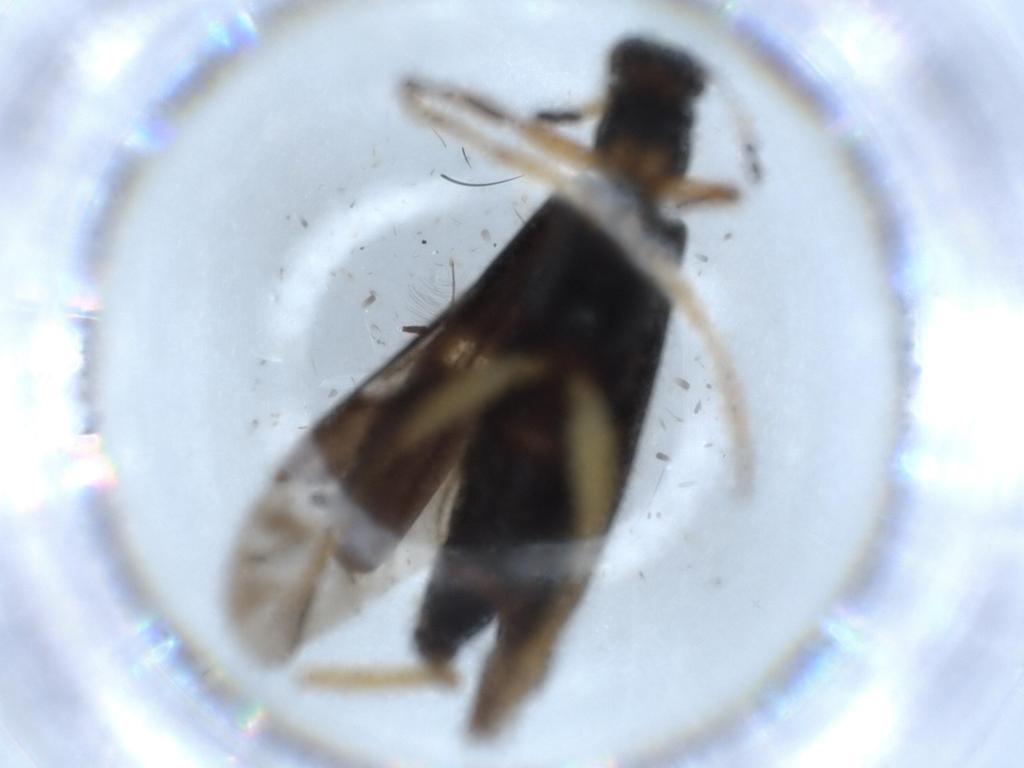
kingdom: Animalia
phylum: Arthropoda
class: Insecta
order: Coleoptera
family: Cleridae
